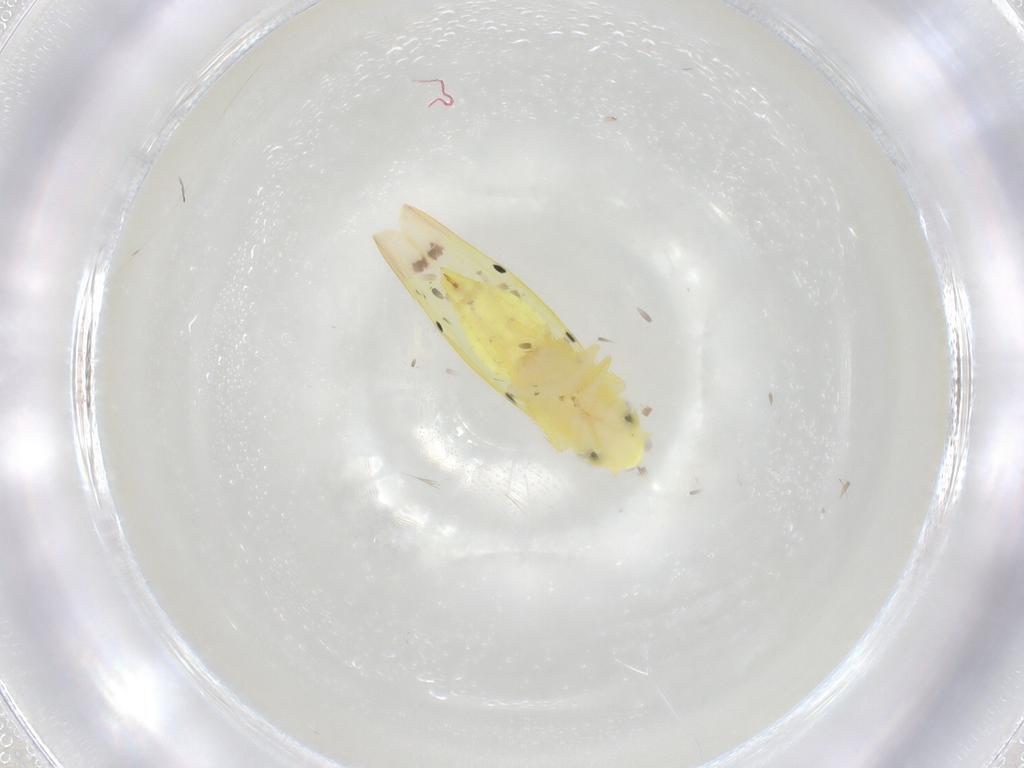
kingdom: Animalia
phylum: Arthropoda
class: Insecta
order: Hemiptera
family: Cicadellidae
